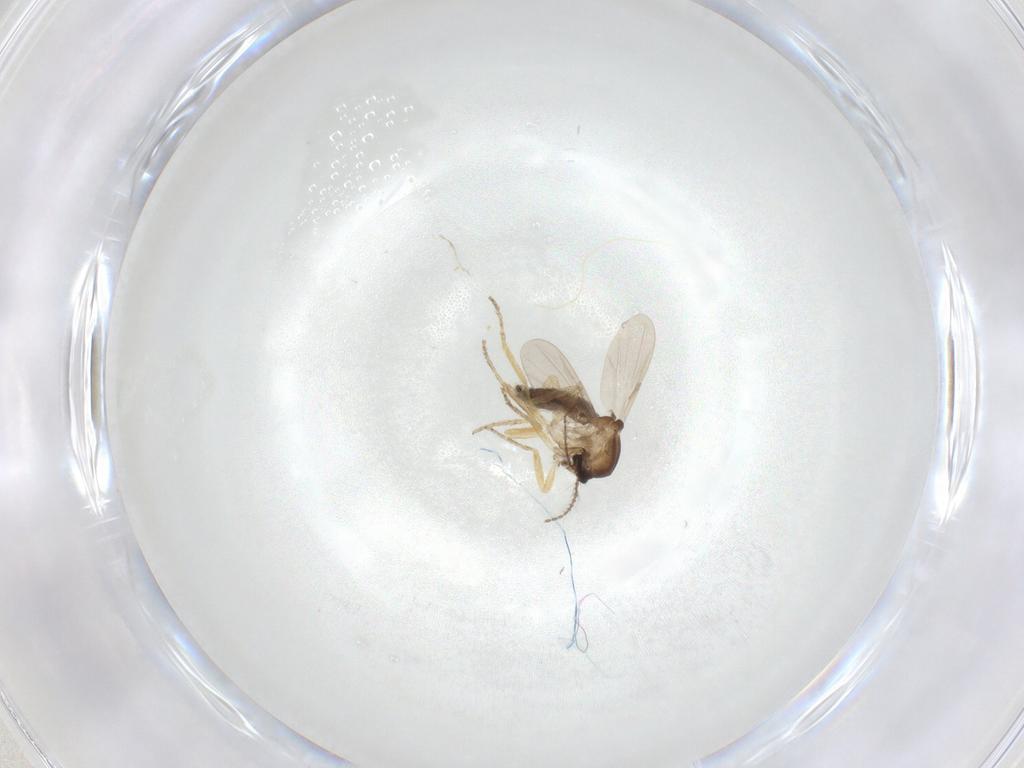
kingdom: Animalia
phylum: Arthropoda
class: Insecta
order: Diptera
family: Ceratopogonidae
